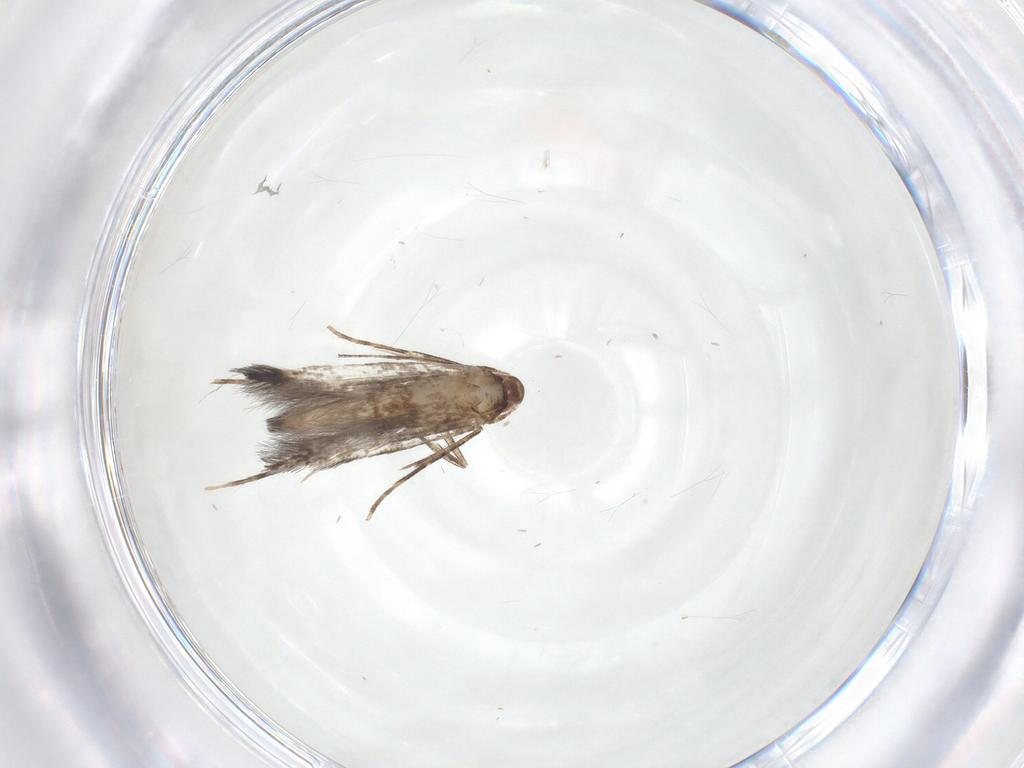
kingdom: Animalia
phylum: Arthropoda
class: Insecta
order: Lepidoptera
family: Cosmopterigidae
